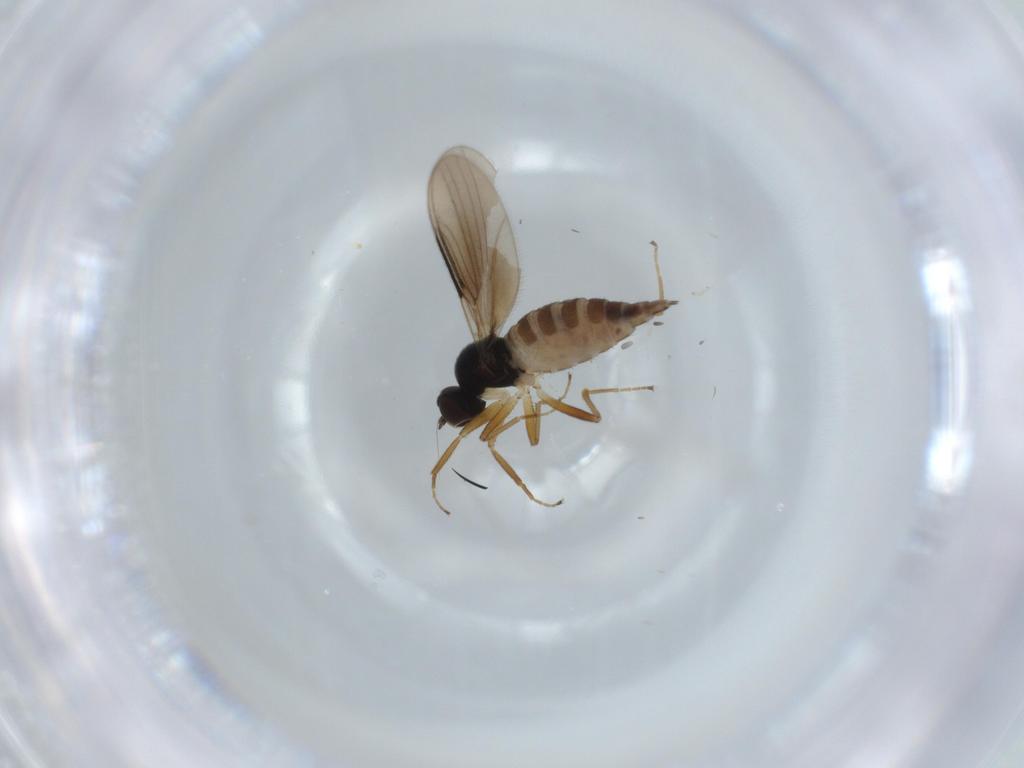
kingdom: Animalia
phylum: Arthropoda
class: Insecta
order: Diptera
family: Hybotidae
